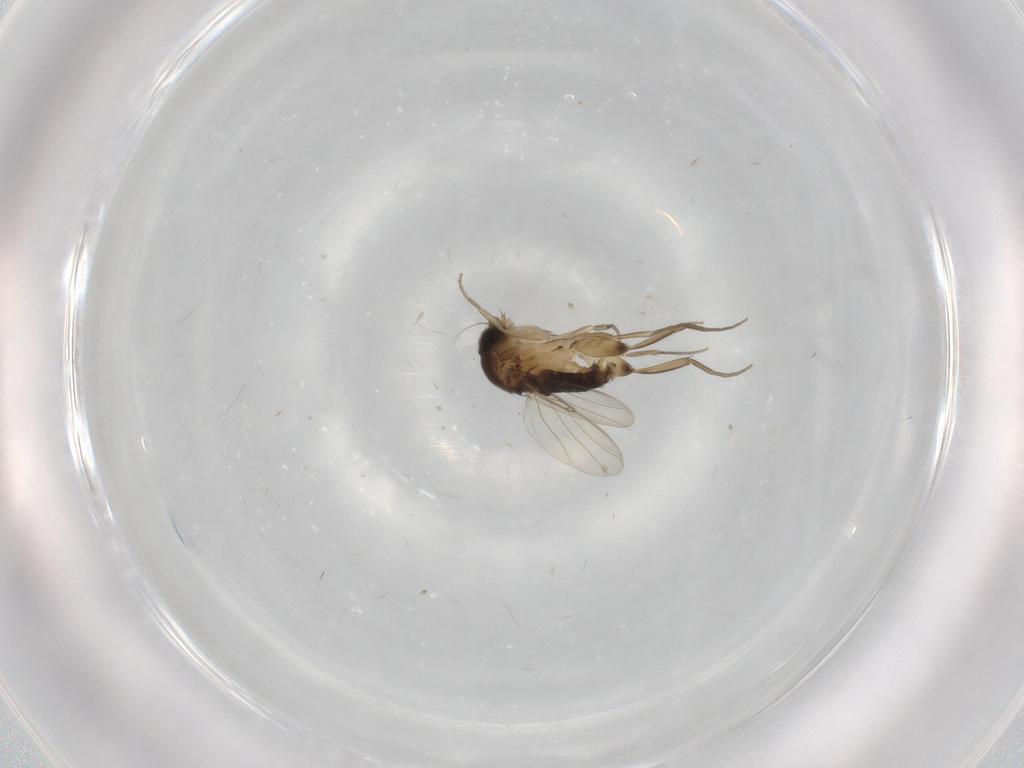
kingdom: Animalia
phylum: Arthropoda
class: Insecta
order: Diptera
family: Phoridae
